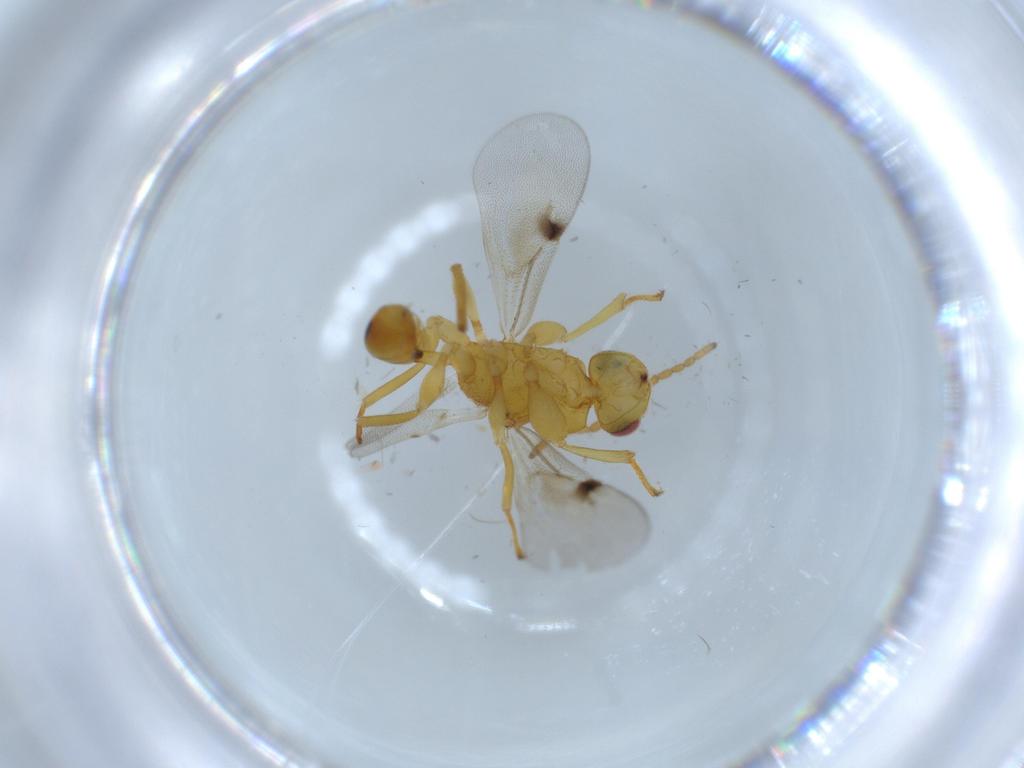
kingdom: Animalia
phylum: Arthropoda
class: Insecta
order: Hymenoptera
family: Eurytomidae
